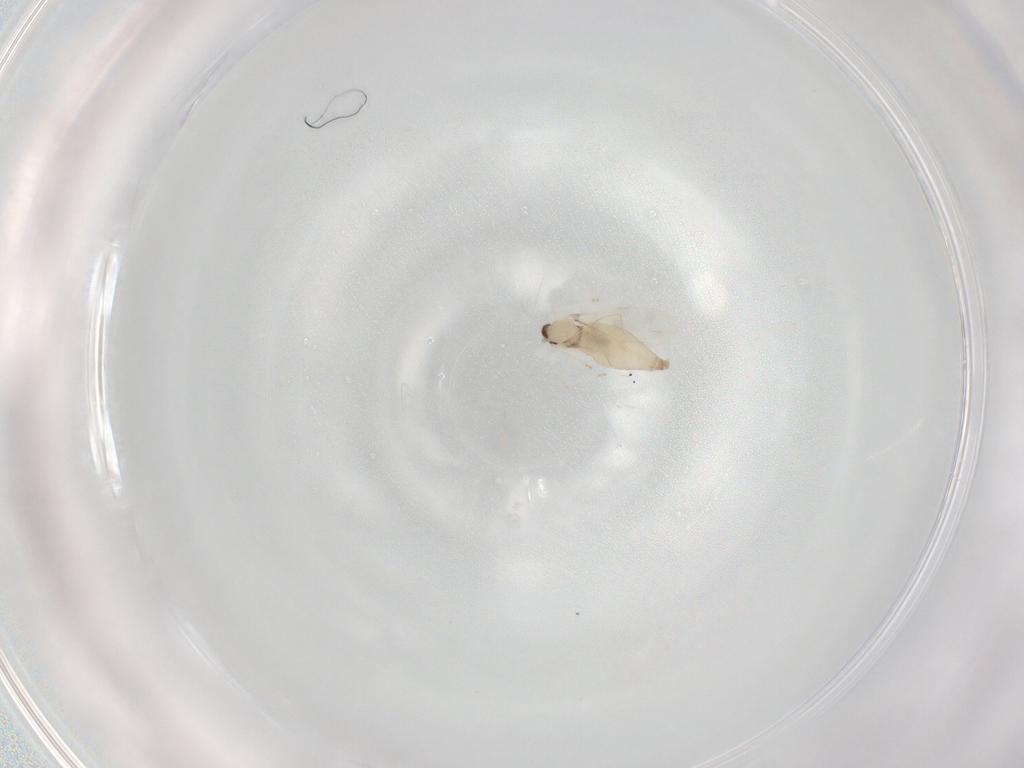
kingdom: Animalia
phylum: Arthropoda
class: Insecta
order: Diptera
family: Cecidomyiidae
